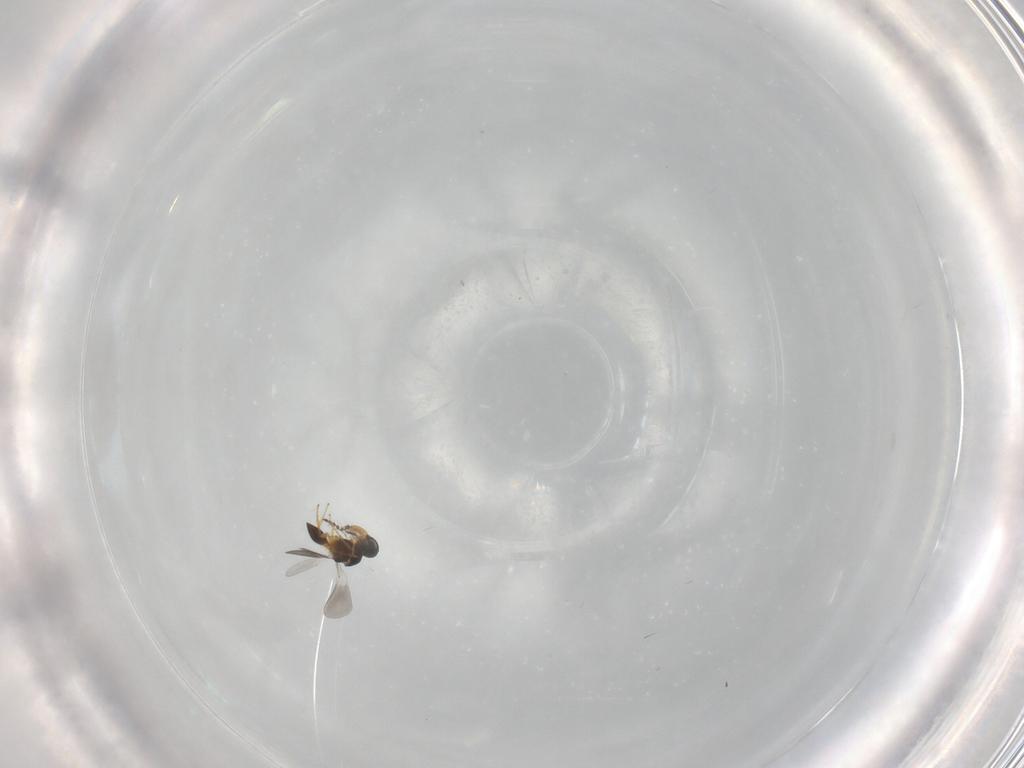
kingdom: Animalia
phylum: Arthropoda
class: Insecta
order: Hymenoptera
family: Platygastridae
